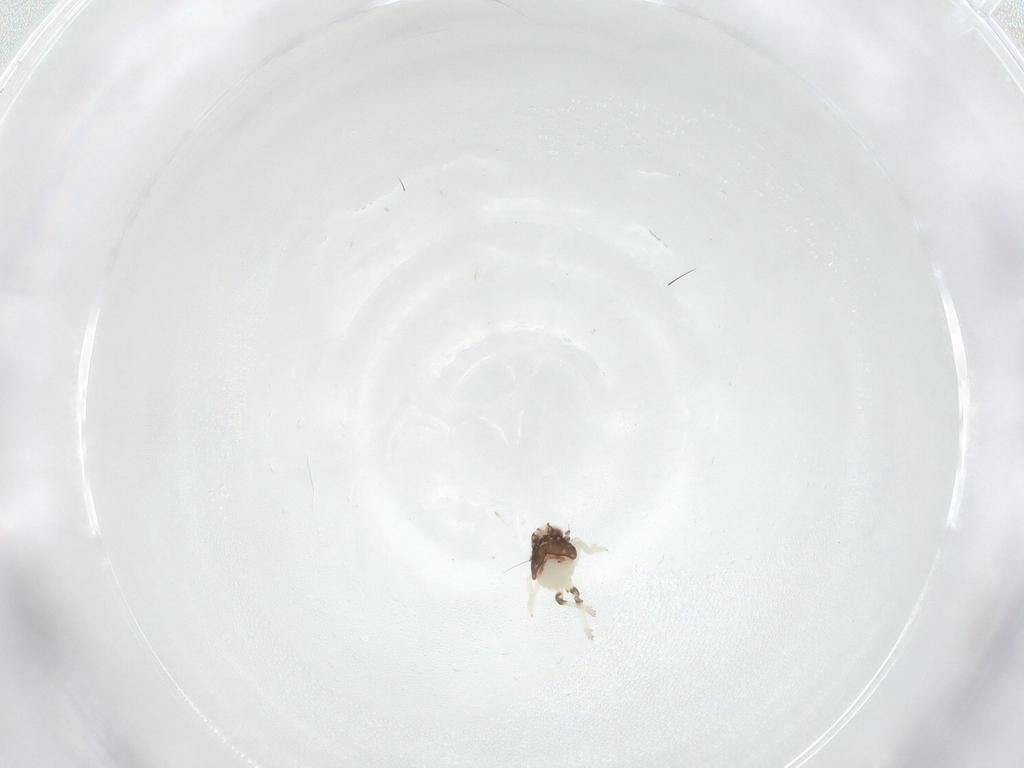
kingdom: Animalia
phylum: Arthropoda
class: Insecta
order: Hemiptera
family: Nogodinidae
